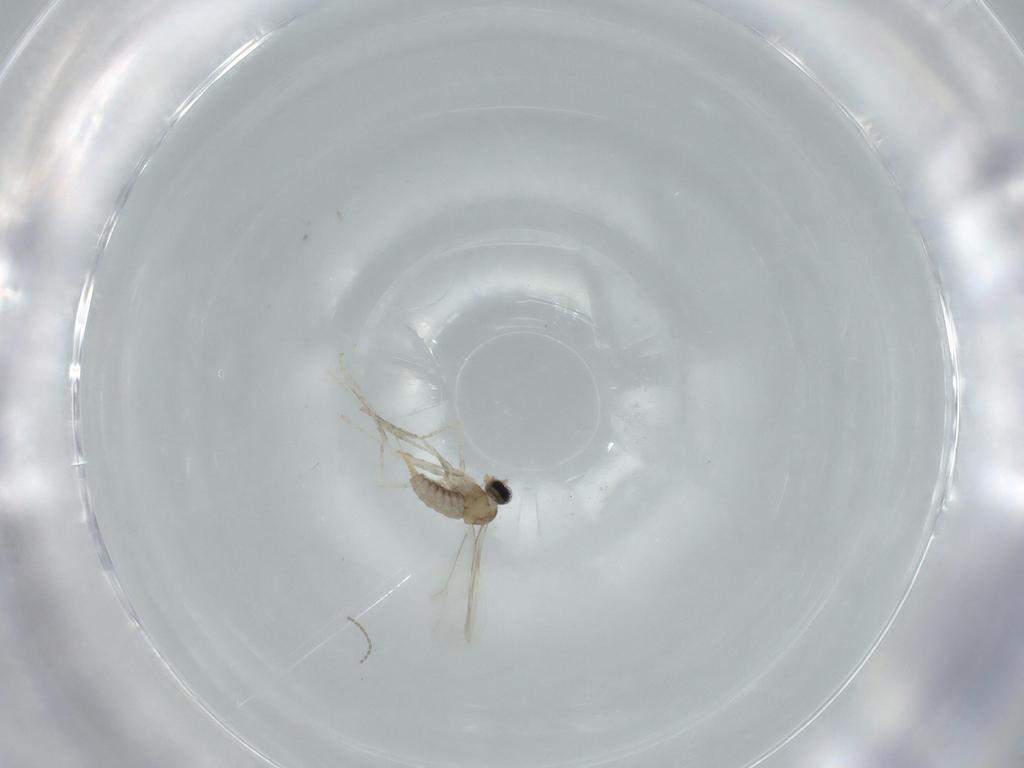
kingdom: Animalia
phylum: Arthropoda
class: Insecta
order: Diptera
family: Cecidomyiidae
